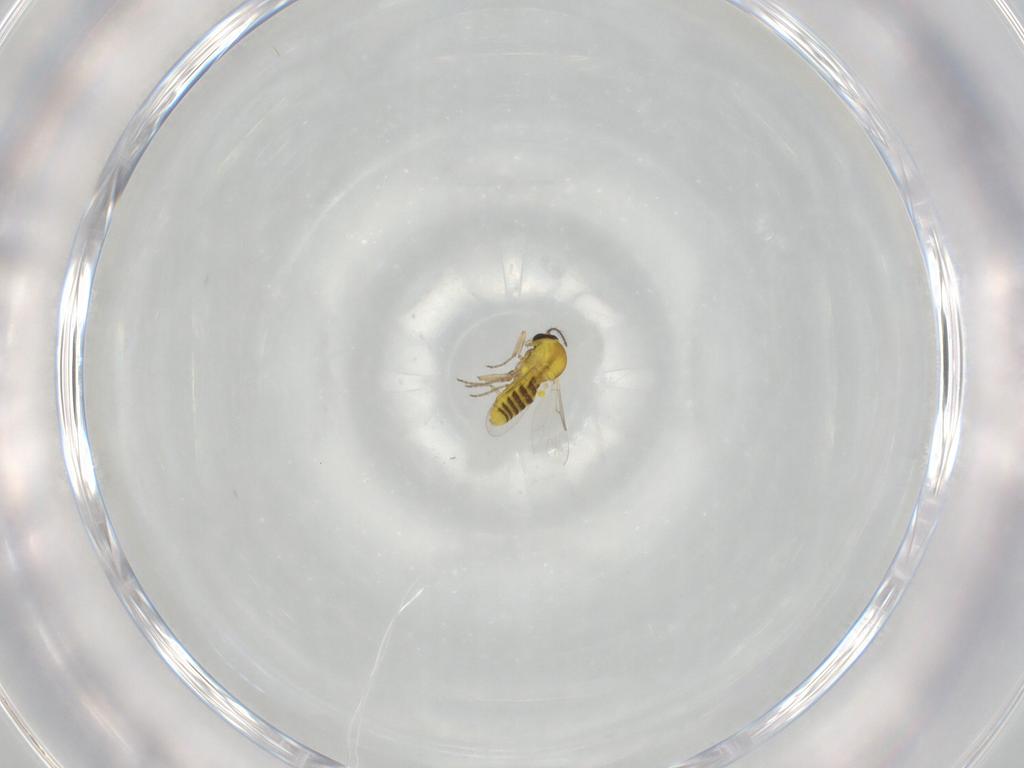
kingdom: Animalia
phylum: Arthropoda
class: Insecta
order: Diptera
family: Ceratopogonidae
